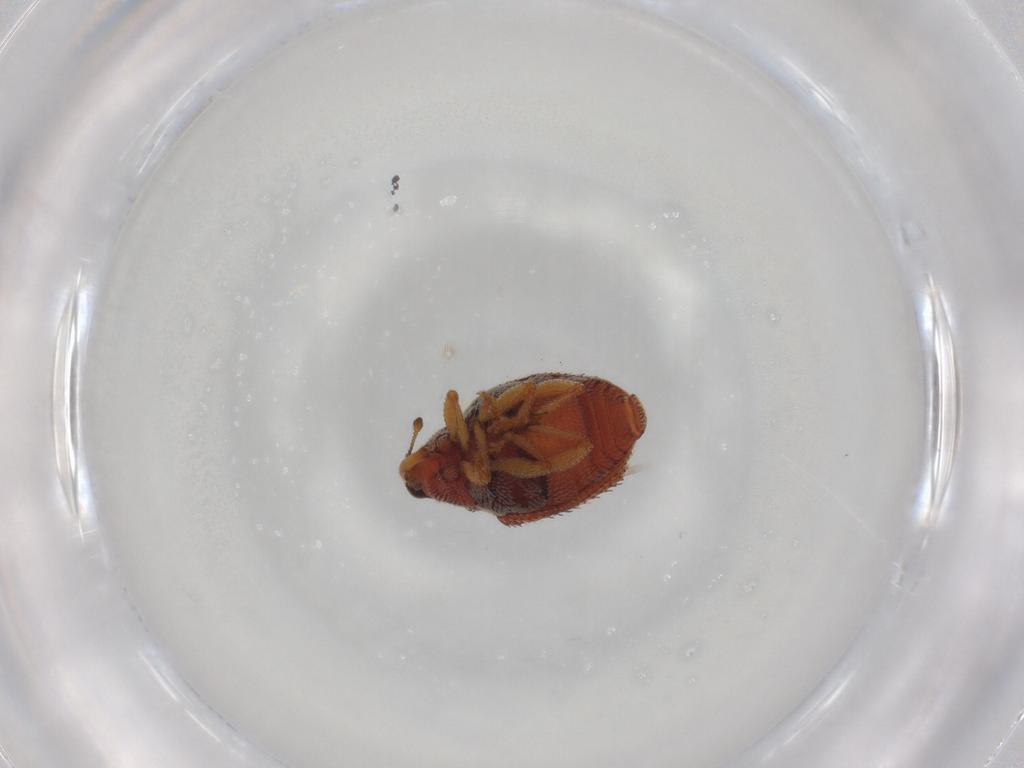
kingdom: Animalia
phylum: Arthropoda
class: Insecta
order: Coleoptera
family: Curculionidae
